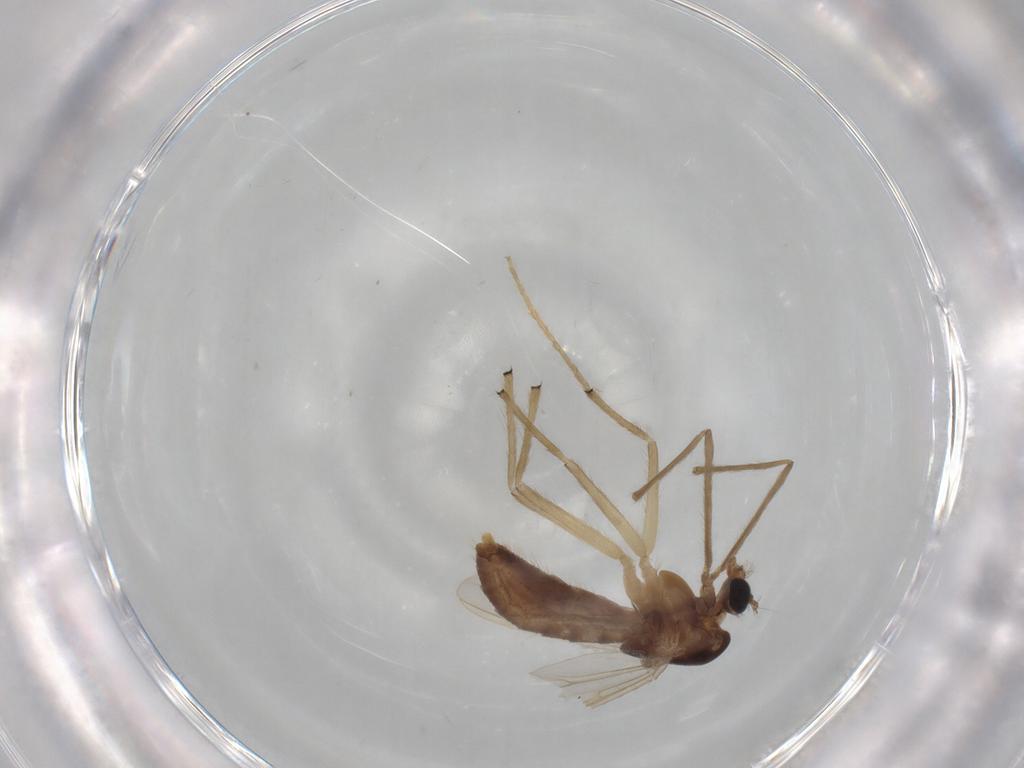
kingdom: Animalia
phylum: Arthropoda
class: Insecta
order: Diptera
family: Chironomidae
